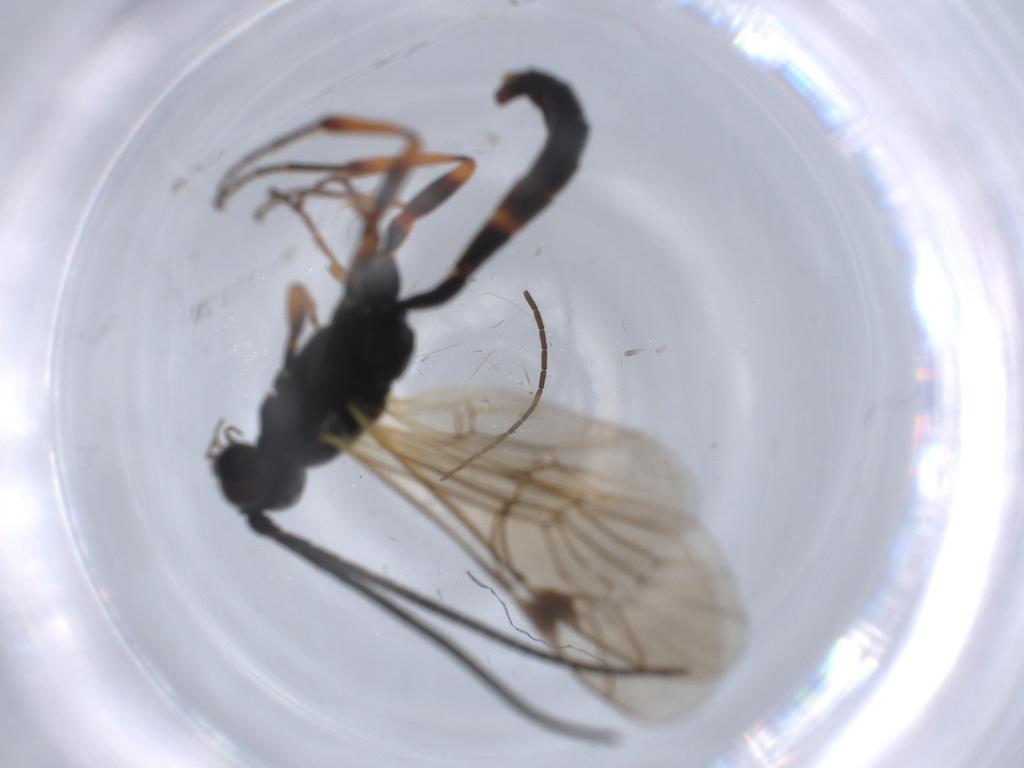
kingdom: Animalia
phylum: Arthropoda
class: Insecta
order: Hymenoptera
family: Ichneumonidae
